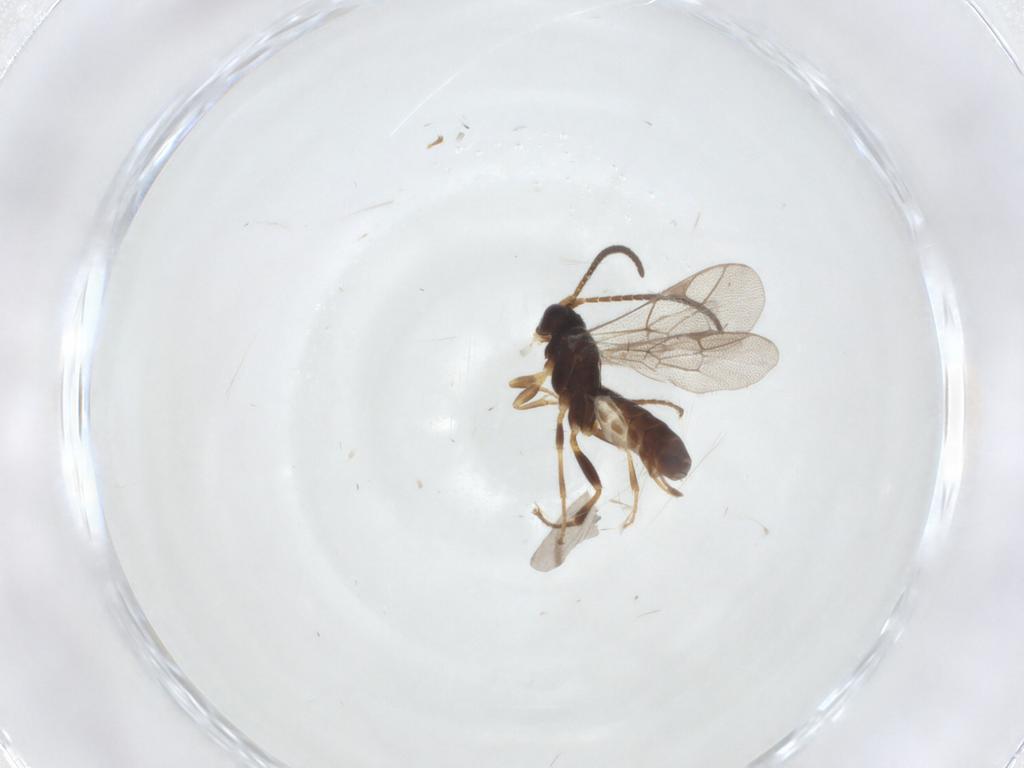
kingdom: Animalia
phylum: Arthropoda
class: Insecta
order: Hymenoptera
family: Ichneumonidae
